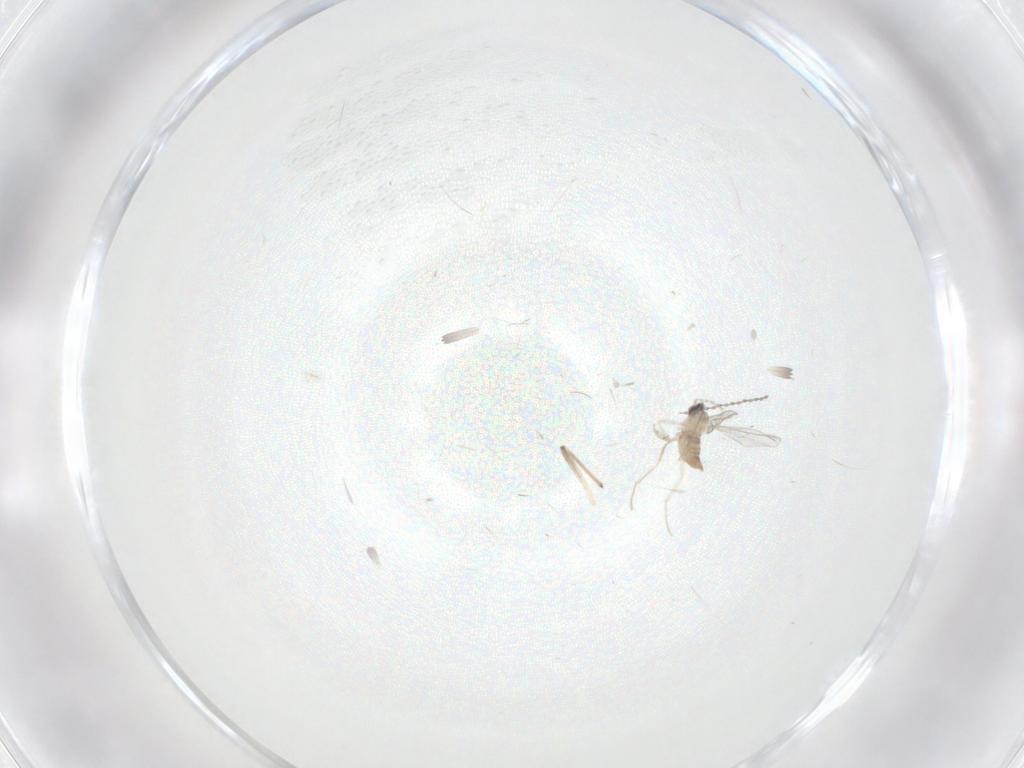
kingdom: Animalia
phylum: Arthropoda
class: Insecta
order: Diptera
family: Cecidomyiidae
